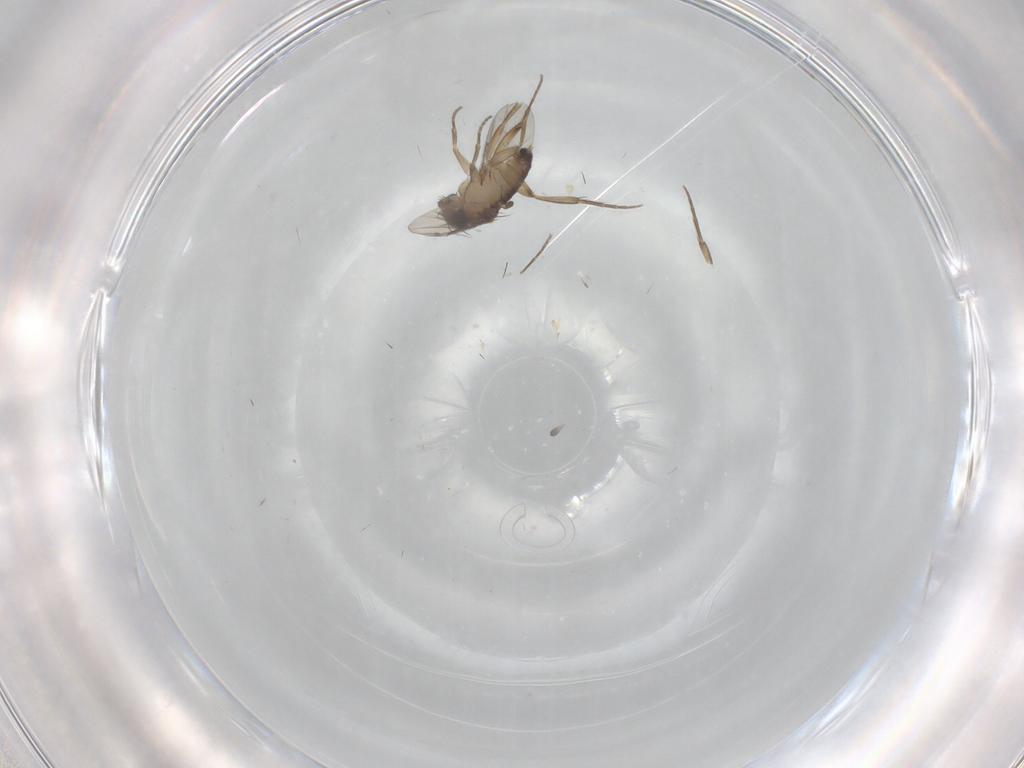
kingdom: Animalia
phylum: Arthropoda
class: Insecta
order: Diptera
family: Phoridae
